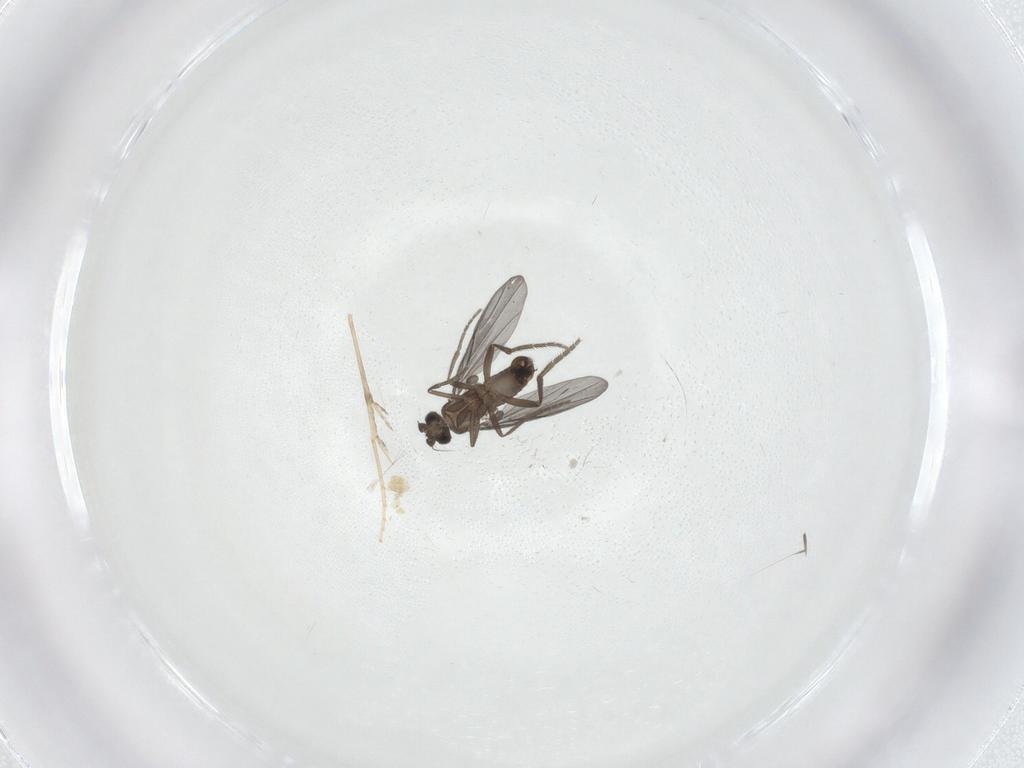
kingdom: Animalia
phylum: Arthropoda
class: Insecta
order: Diptera
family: Phoridae
